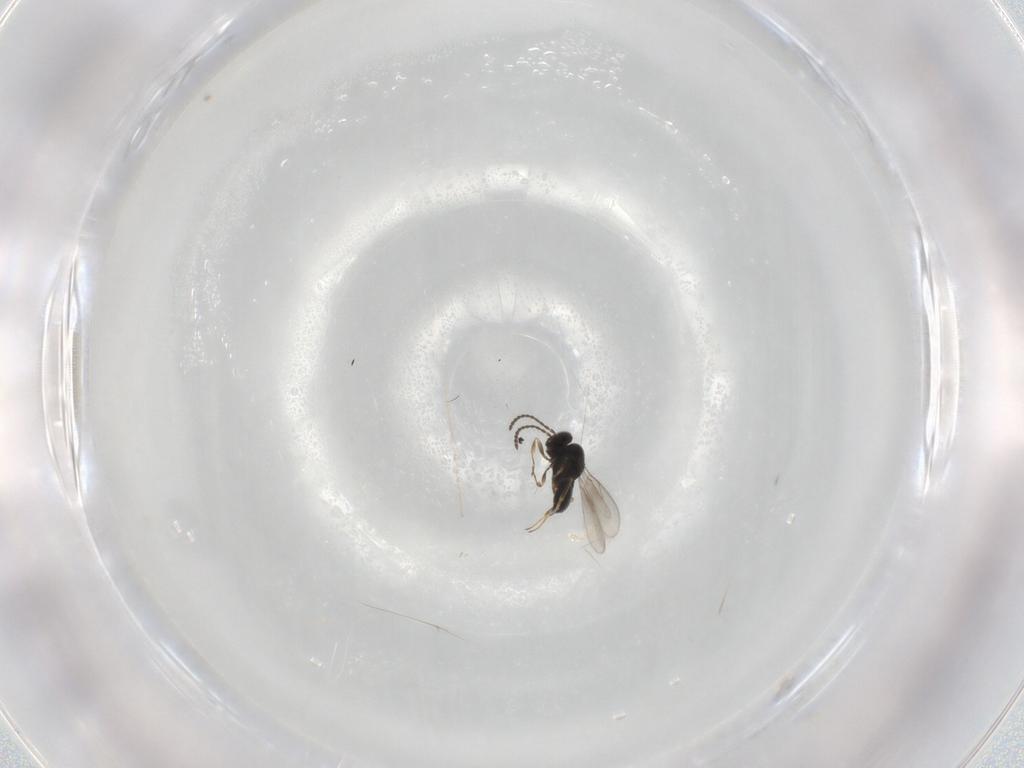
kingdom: Animalia
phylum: Arthropoda
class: Insecta
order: Hymenoptera
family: Scelionidae
